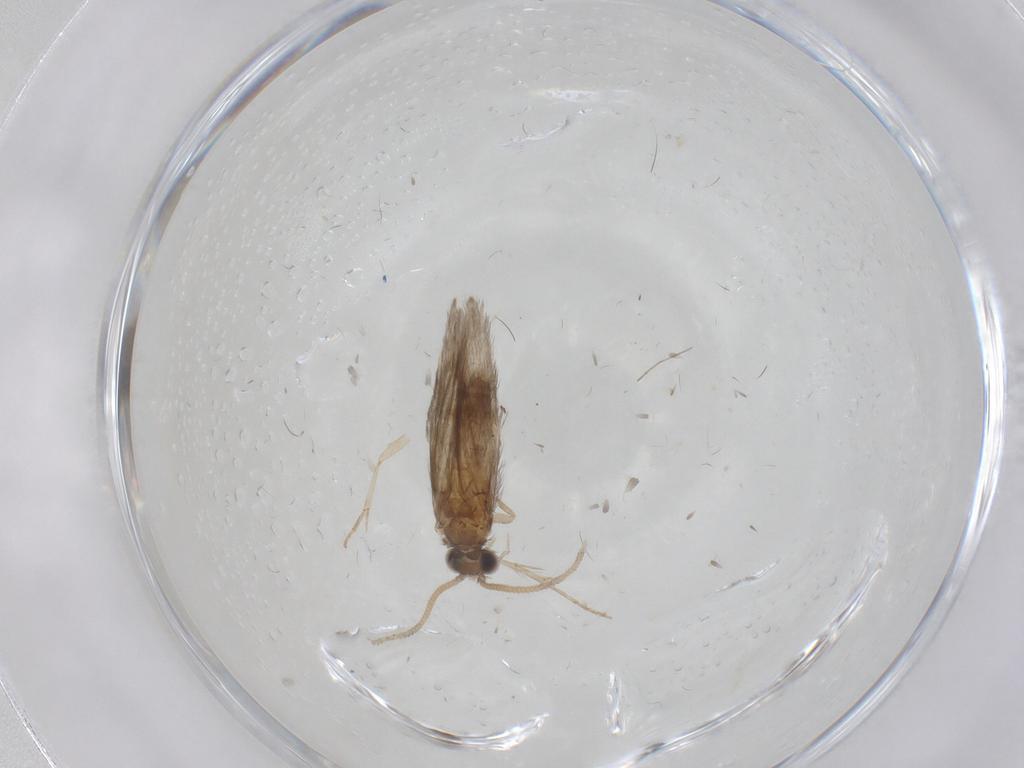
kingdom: Animalia
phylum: Arthropoda
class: Insecta
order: Trichoptera
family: Hydroptilidae
